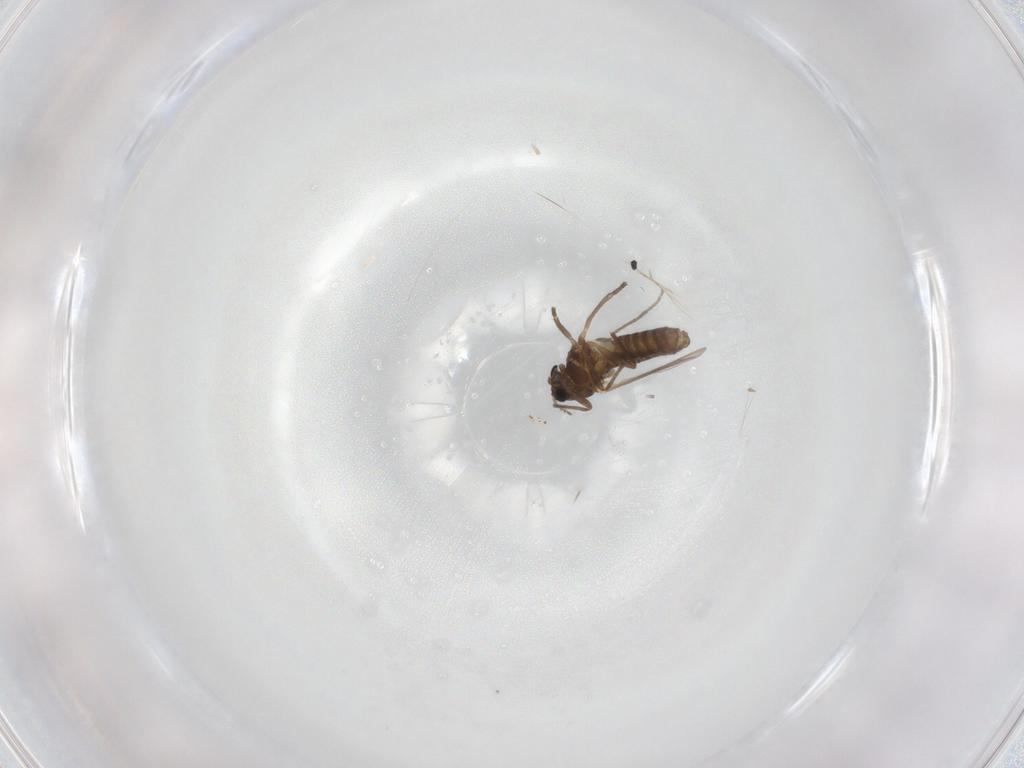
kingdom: Animalia
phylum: Arthropoda
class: Insecta
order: Diptera
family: Chironomidae
